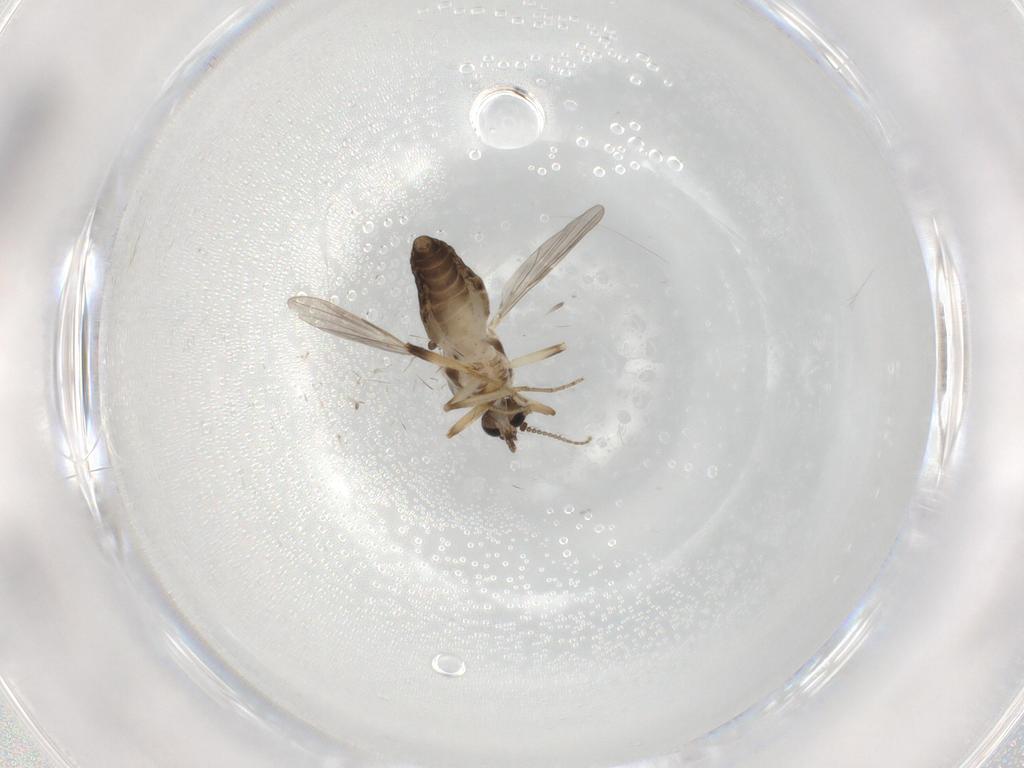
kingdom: Animalia
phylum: Arthropoda
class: Insecta
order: Diptera
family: Ceratopogonidae
